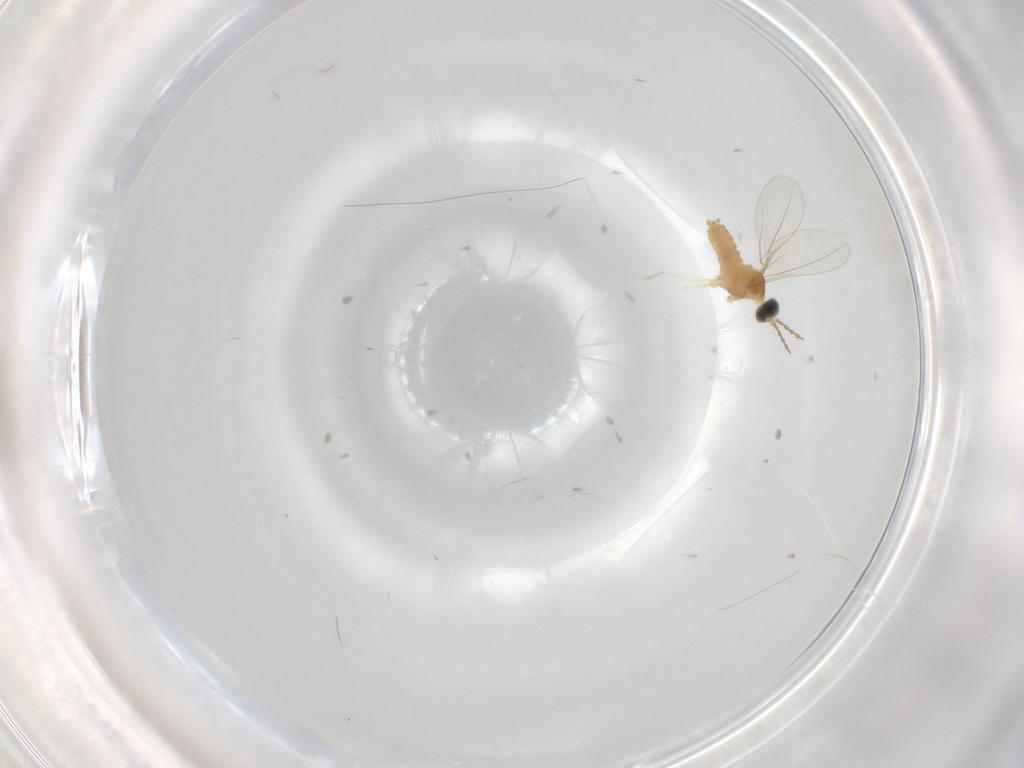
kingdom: Animalia
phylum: Arthropoda
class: Insecta
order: Diptera
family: Cecidomyiidae
